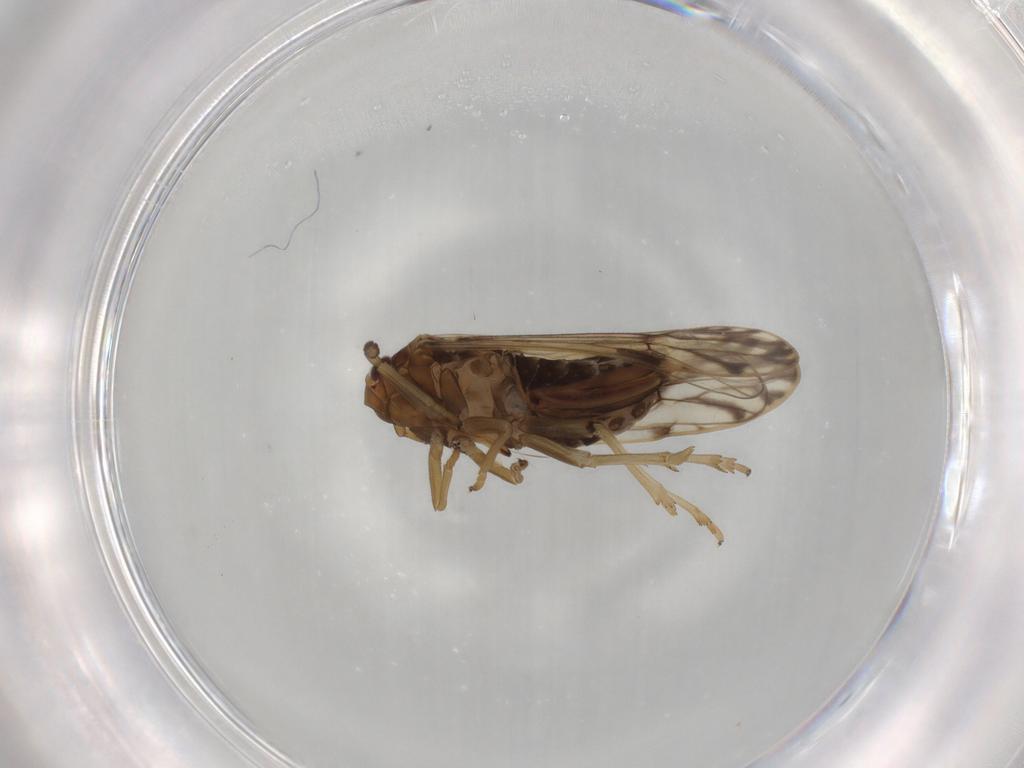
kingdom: Animalia
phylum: Arthropoda
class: Insecta
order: Hemiptera
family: Delphacidae
